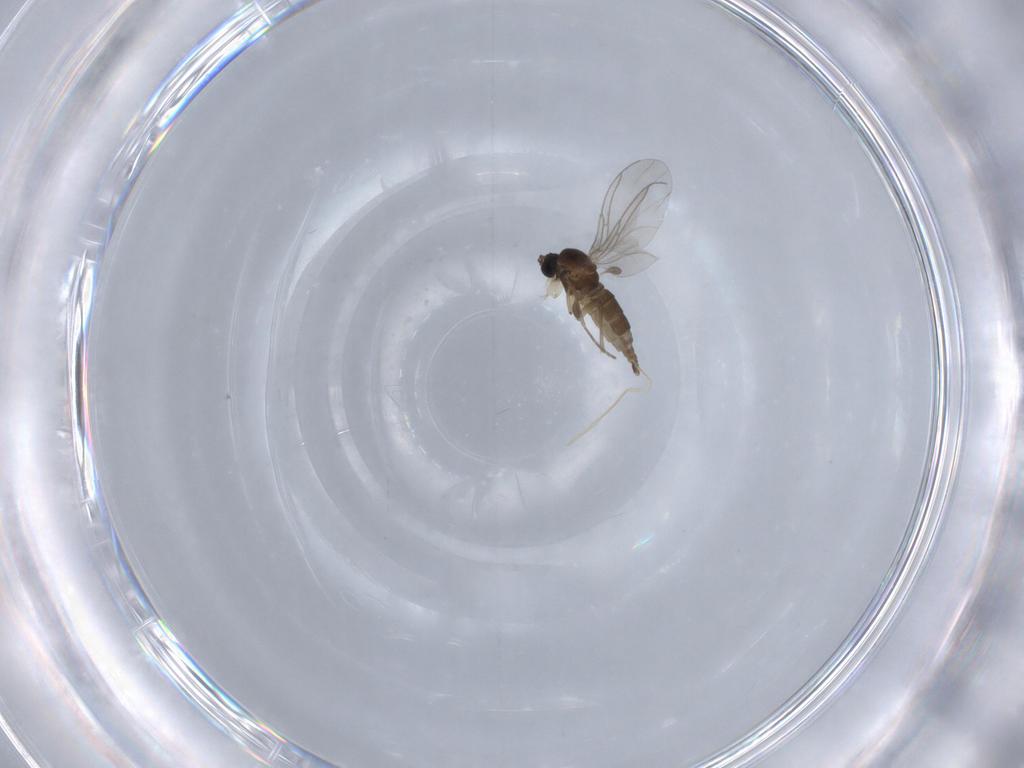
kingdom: Animalia
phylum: Arthropoda
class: Insecta
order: Diptera
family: Sciaridae
